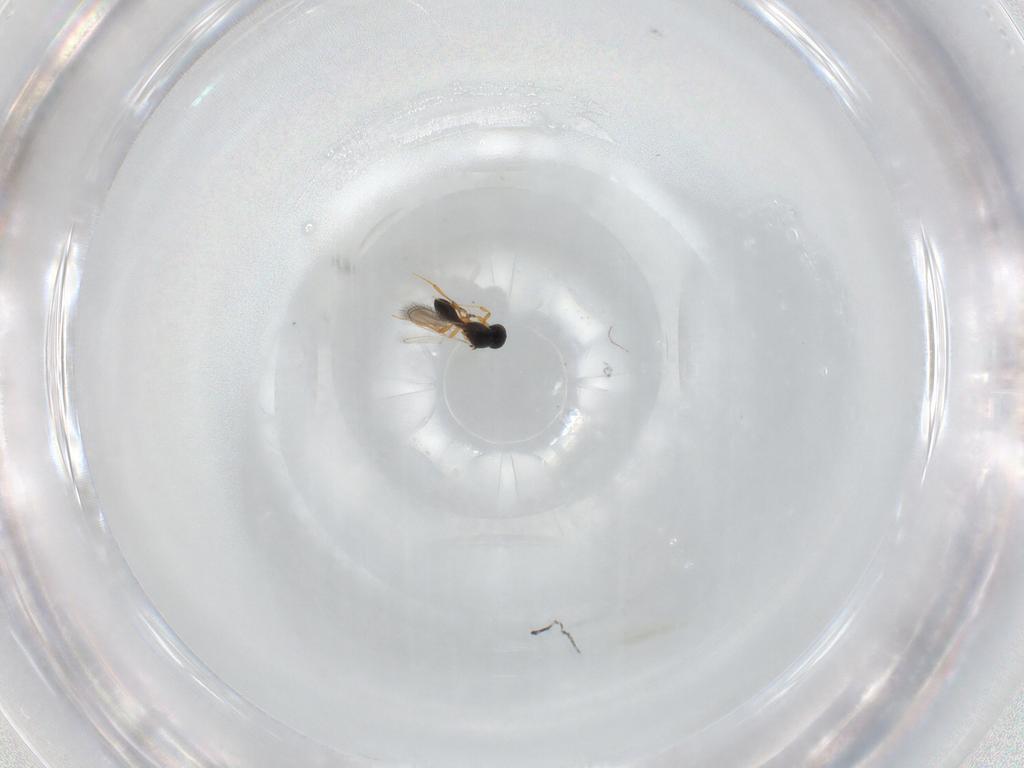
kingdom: Animalia
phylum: Arthropoda
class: Insecta
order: Hymenoptera
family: Platygastridae
